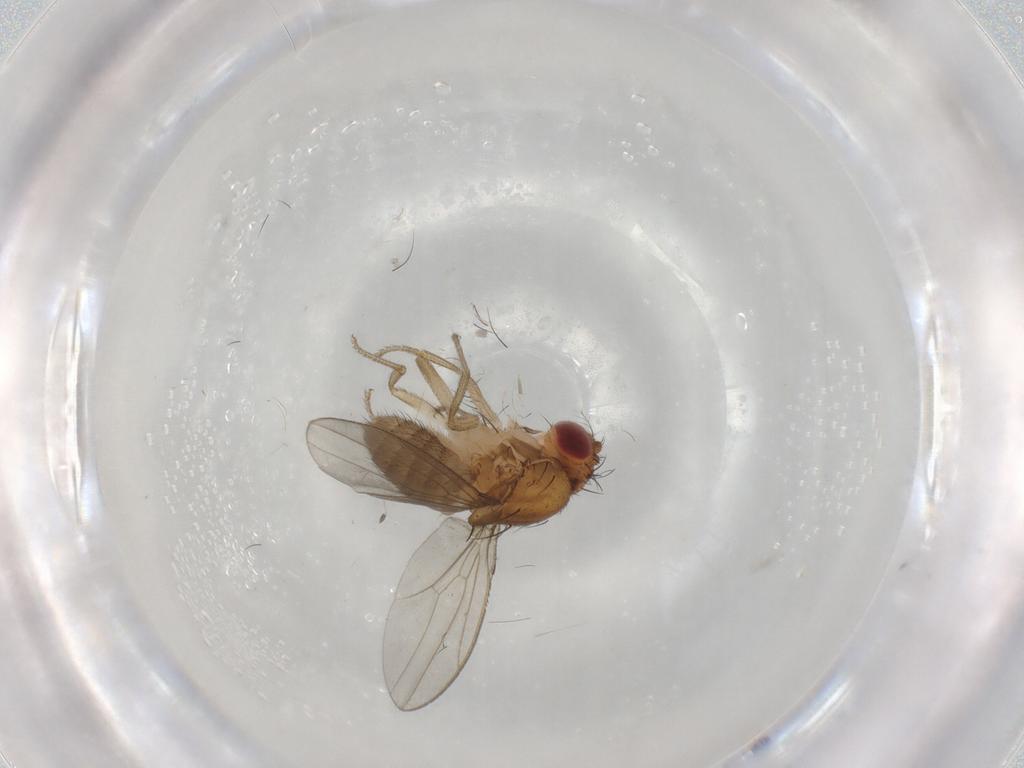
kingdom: Animalia
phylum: Arthropoda
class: Insecta
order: Diptera
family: Drosophilidae
